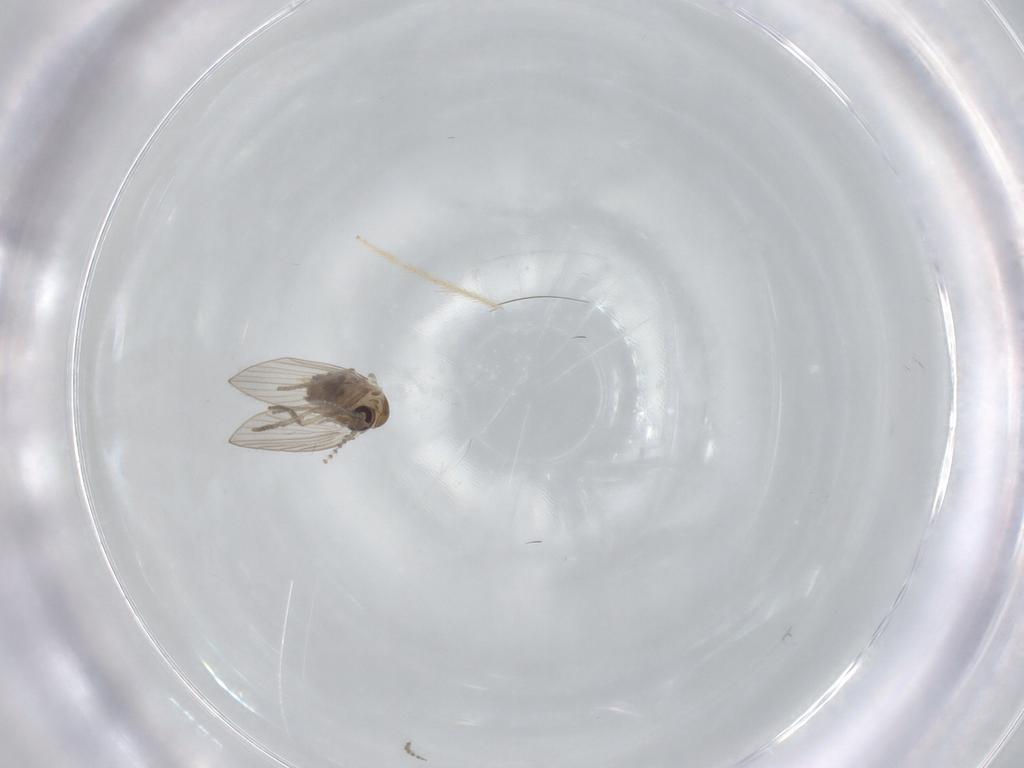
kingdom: Animalia
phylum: Arthropoda
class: Insecta
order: Diptera
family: Psychodidae
